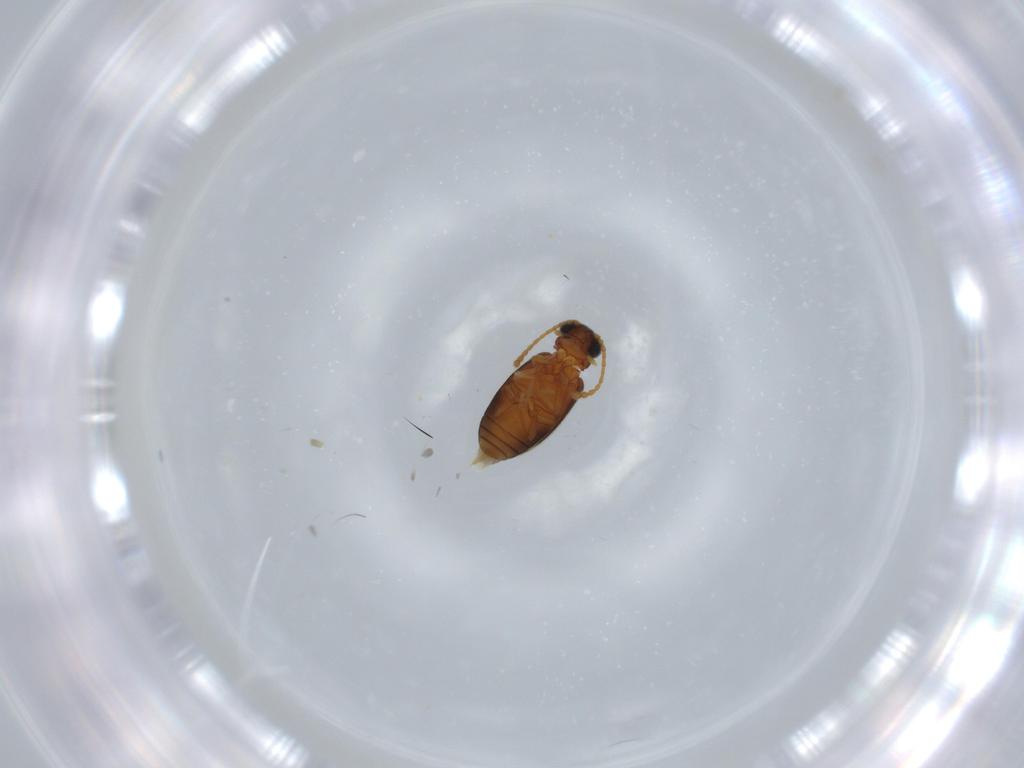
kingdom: Animalia
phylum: Arthropoda
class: Insecta
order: Coleoptera
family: Aderidae
